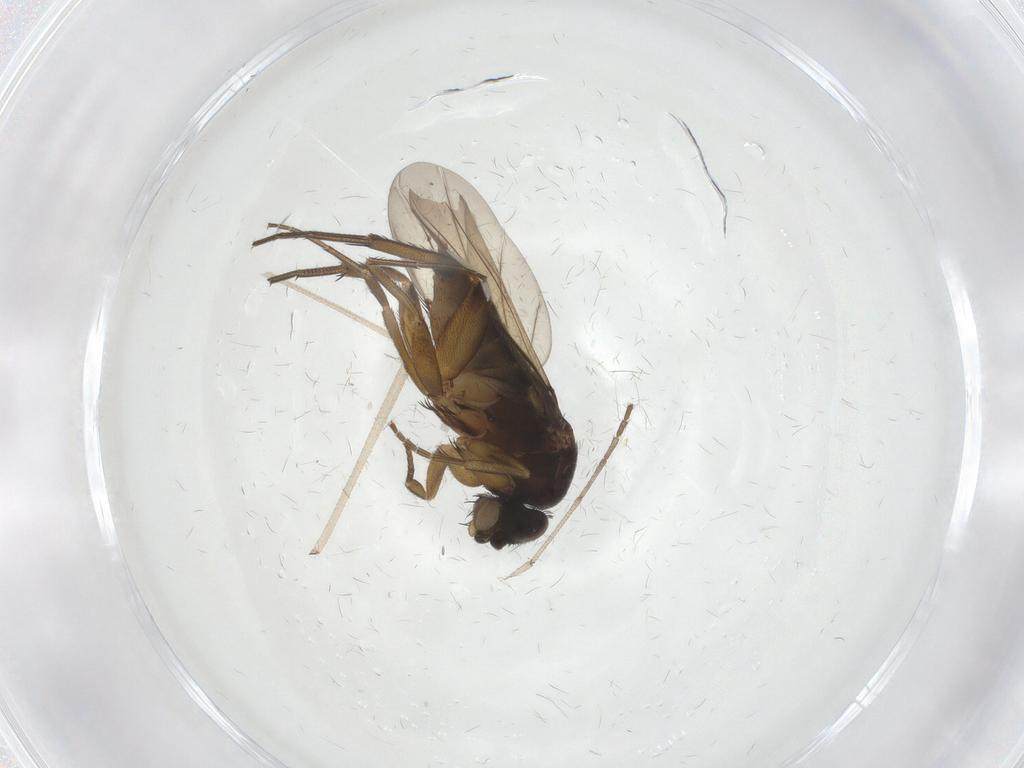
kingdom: Animalia
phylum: Arthropoda
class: Insecta
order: Diptera
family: Phoridae
